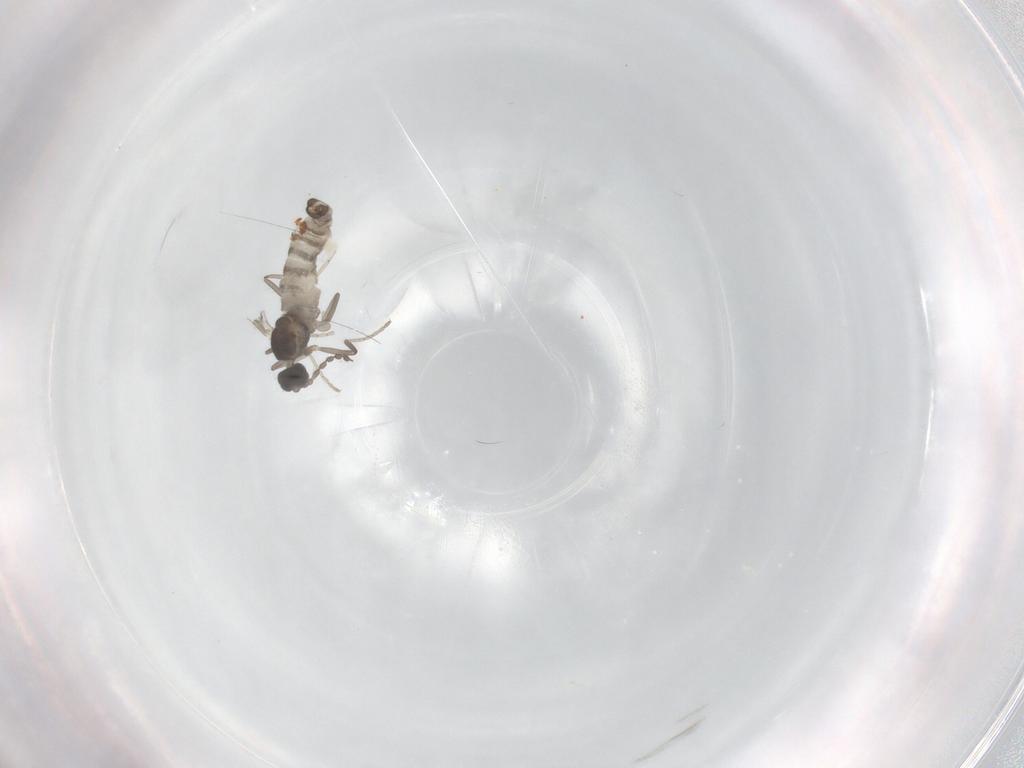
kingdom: Animalia
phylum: Arthropoda
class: Insecta
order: Diptera
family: Cecidomyiidae
